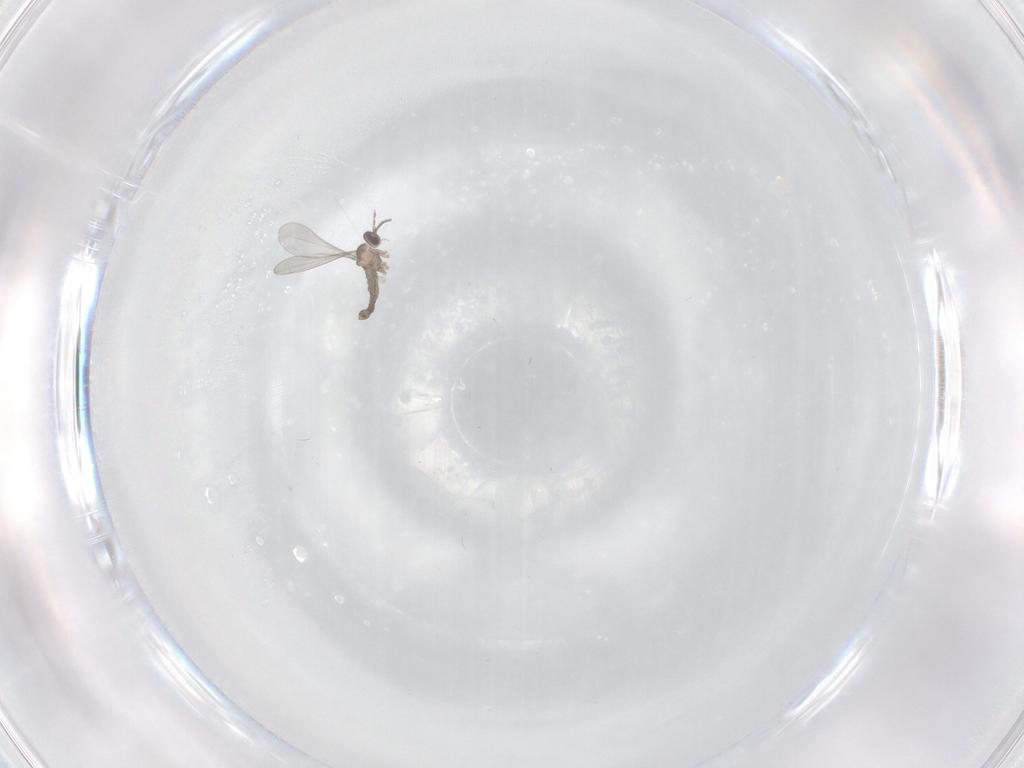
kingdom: Animalia
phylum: Arthropoda
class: Insecta
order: Diptera
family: Cecidomyiidae
